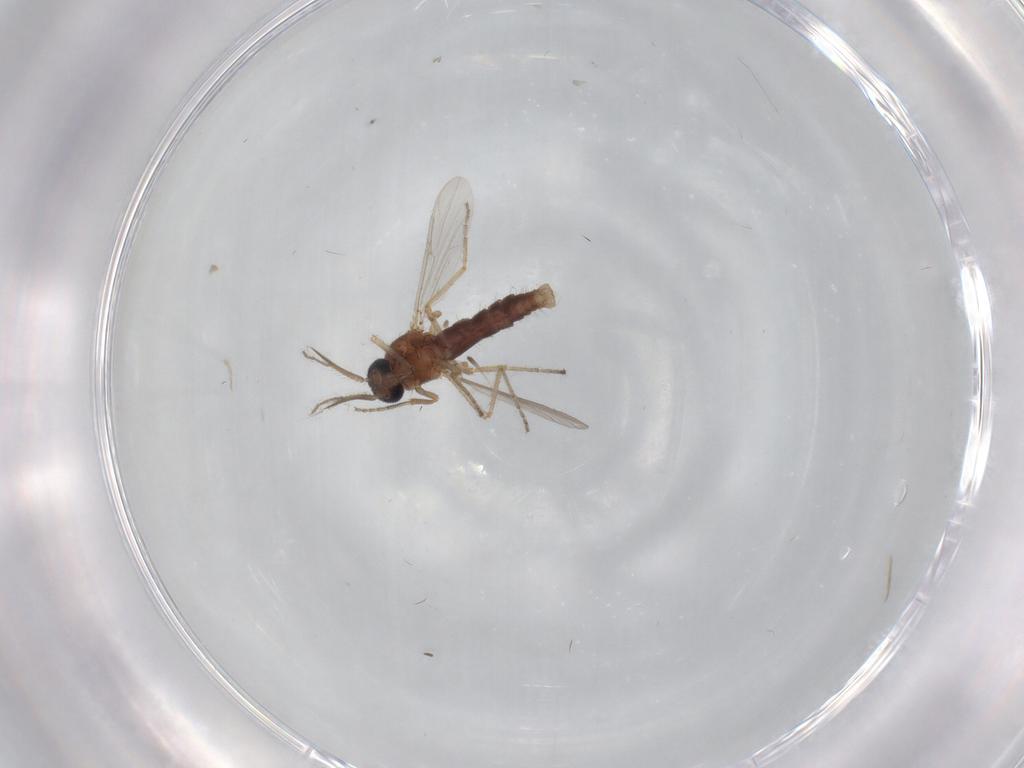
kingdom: Animalia
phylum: Arthropoda
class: Insecta
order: Diptera
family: Ceratopogonidae
